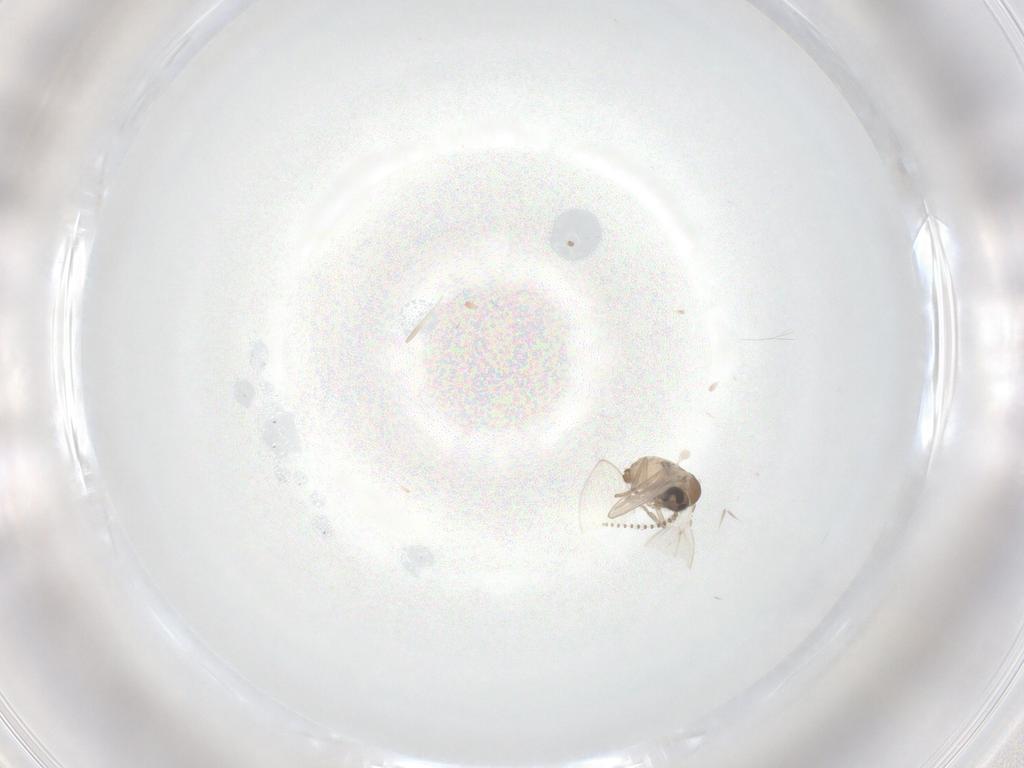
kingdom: Animalia
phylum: Arthropoda
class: Insecta
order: Diptera
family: Psychodidae
